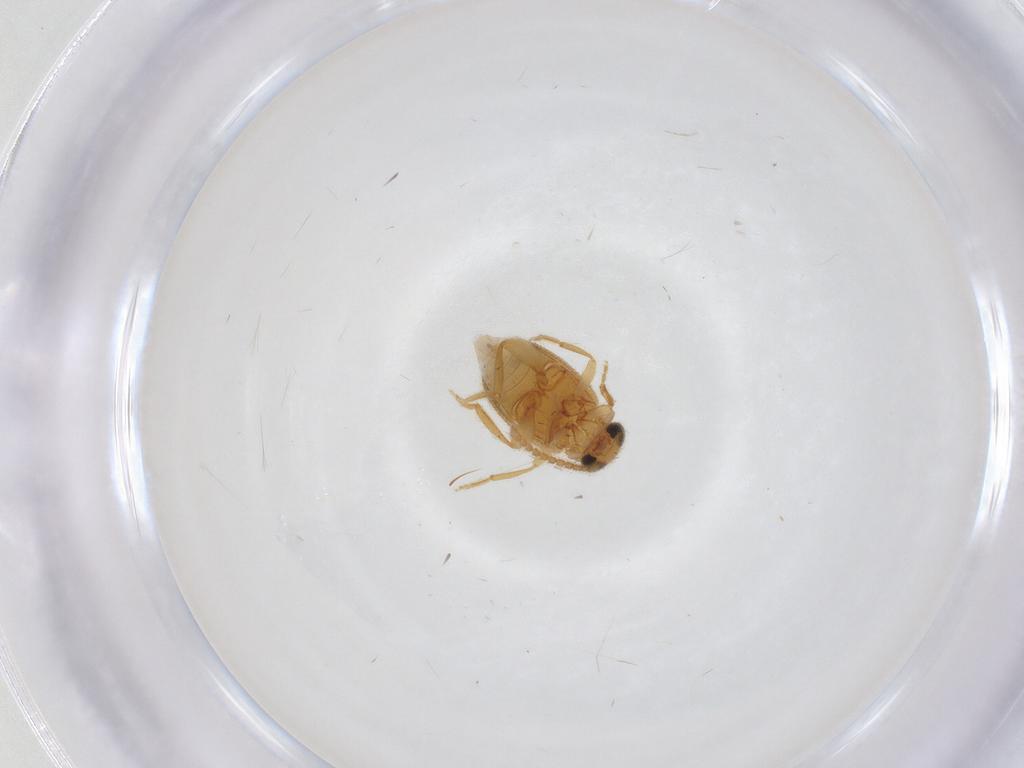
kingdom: Animalia
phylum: Arthropoda
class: Insecta
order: Coleoptera
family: Aderidae
